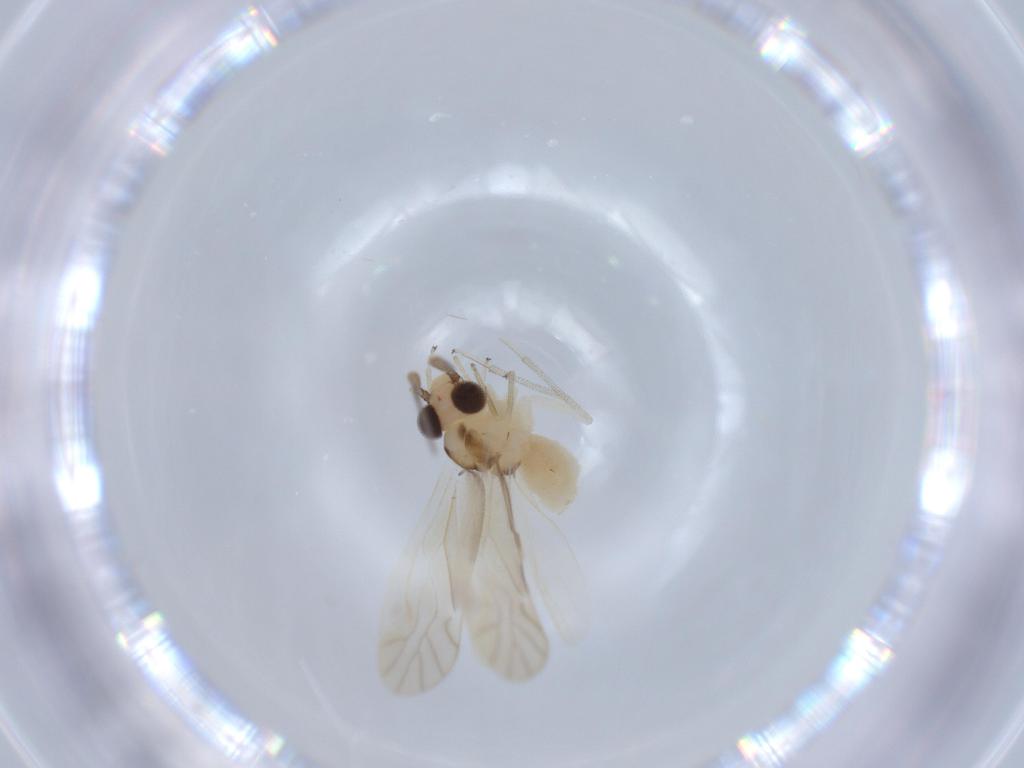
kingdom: Animalia
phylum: Arthropoda
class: Insecta
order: Psocodea
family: Caeciliusidae
